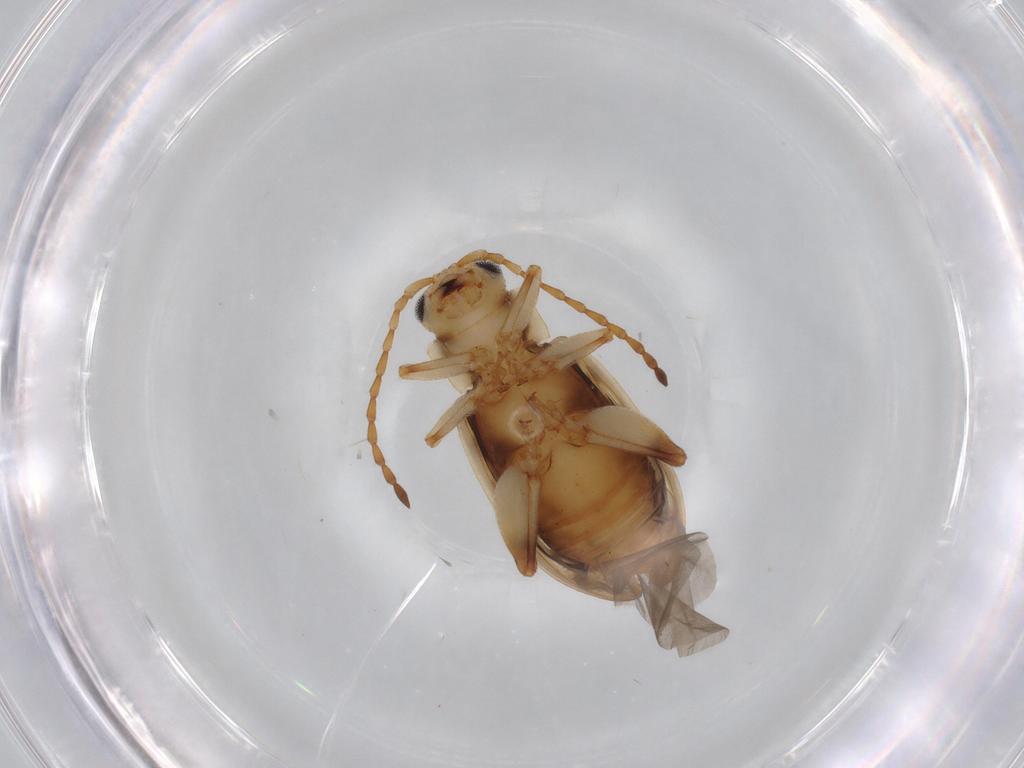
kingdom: Animalia
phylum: Arthropoda
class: Insecta
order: Coleoptera
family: Chrysomelidae
